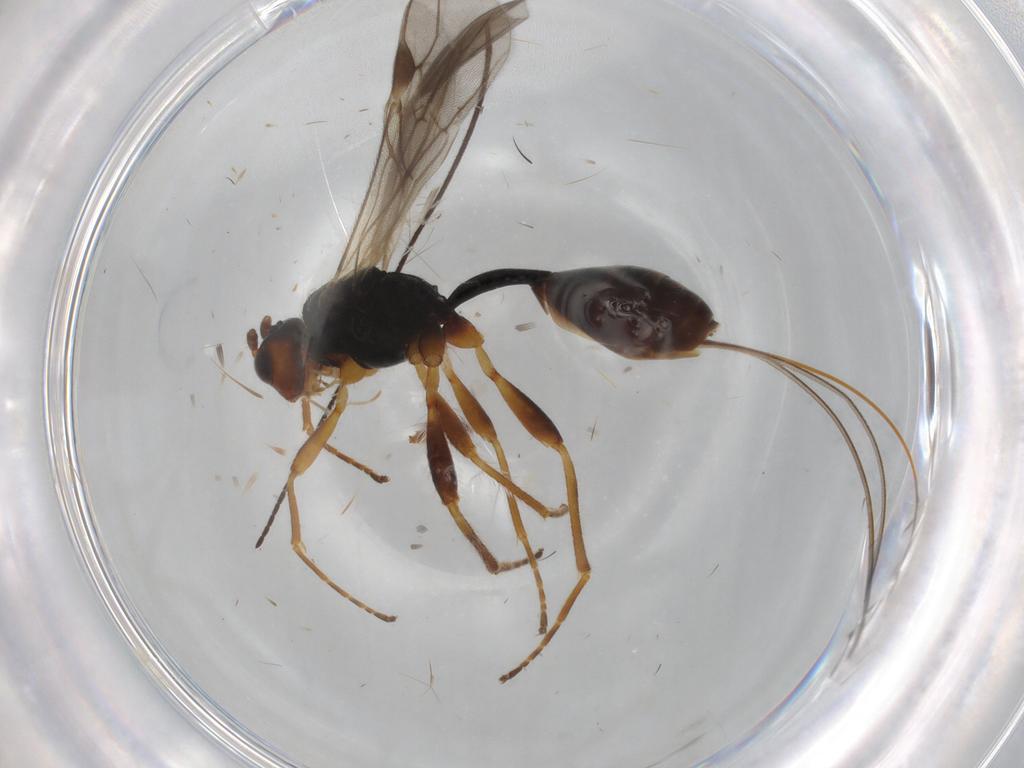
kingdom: Animalia
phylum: Arthropoda
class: Insecta
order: Hymenoptera
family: Braconidae
